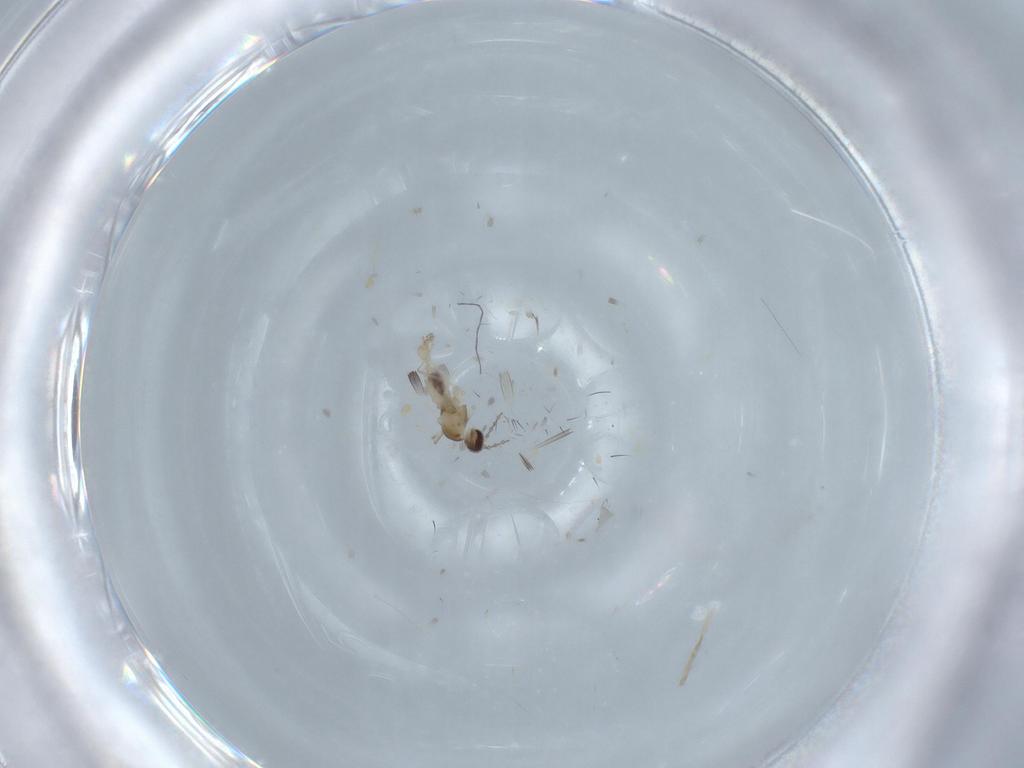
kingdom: Animalia
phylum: Arthropoda
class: Insecta
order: Diptera
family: Cecidomyiidae
